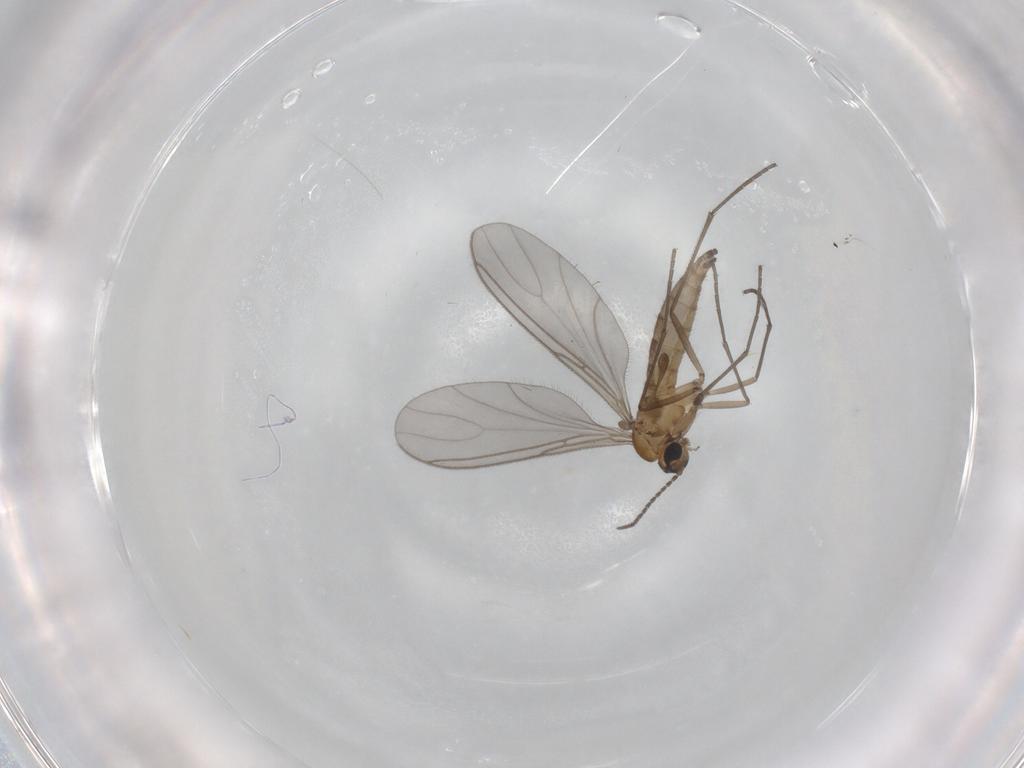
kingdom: Animalia
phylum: Arthropoda
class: Insecta
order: Diptera
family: Sciaridae
